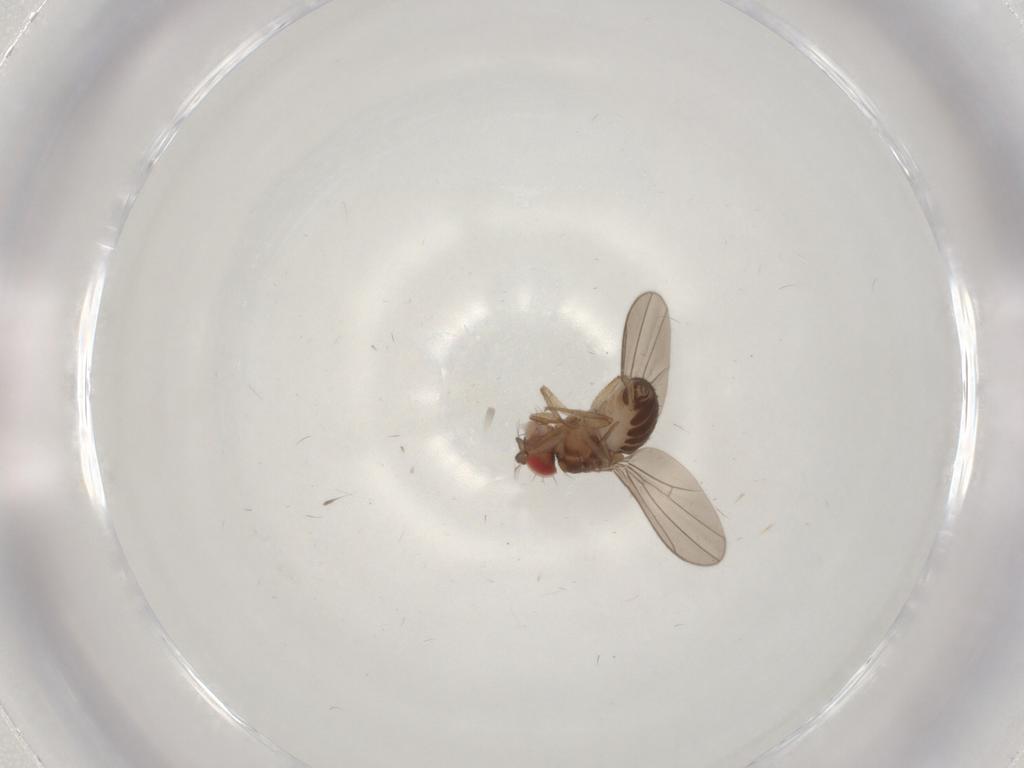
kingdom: Animalia
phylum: Arthropoda
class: Insecta
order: Diptera
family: Drosophilidae
